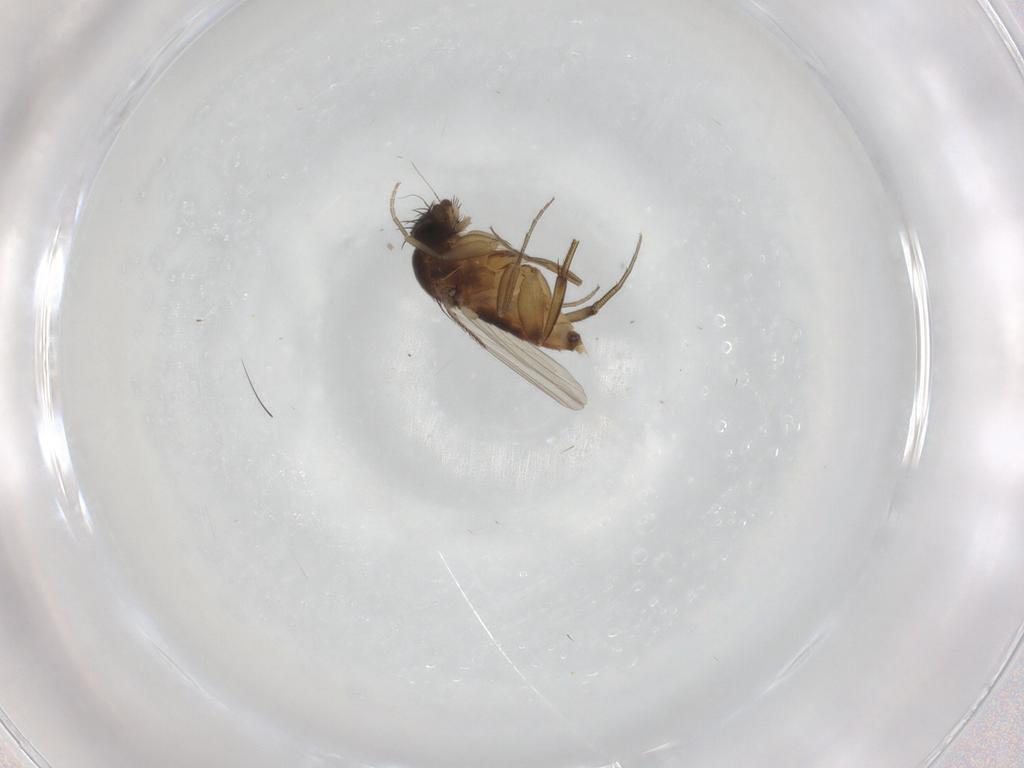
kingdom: Animalia
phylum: Arthropoda
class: Insecta
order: Diptera
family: Phoridae
